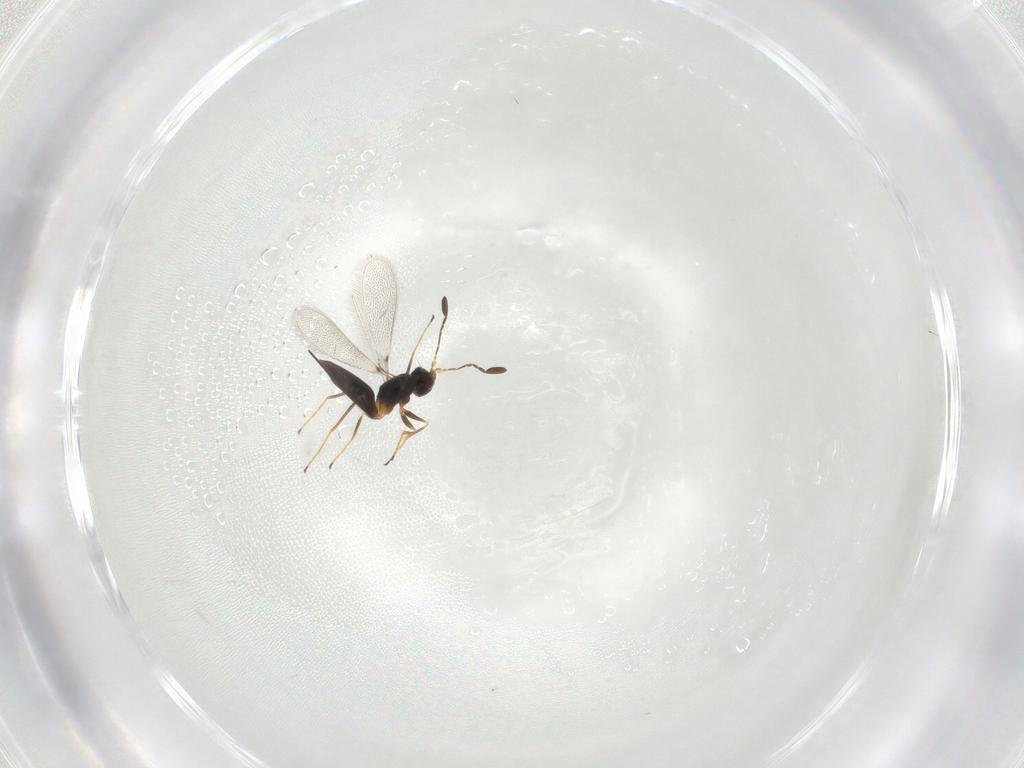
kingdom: Animalia
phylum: Arthropoda
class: Insecta
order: Hymenoptera
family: Mymaridae
